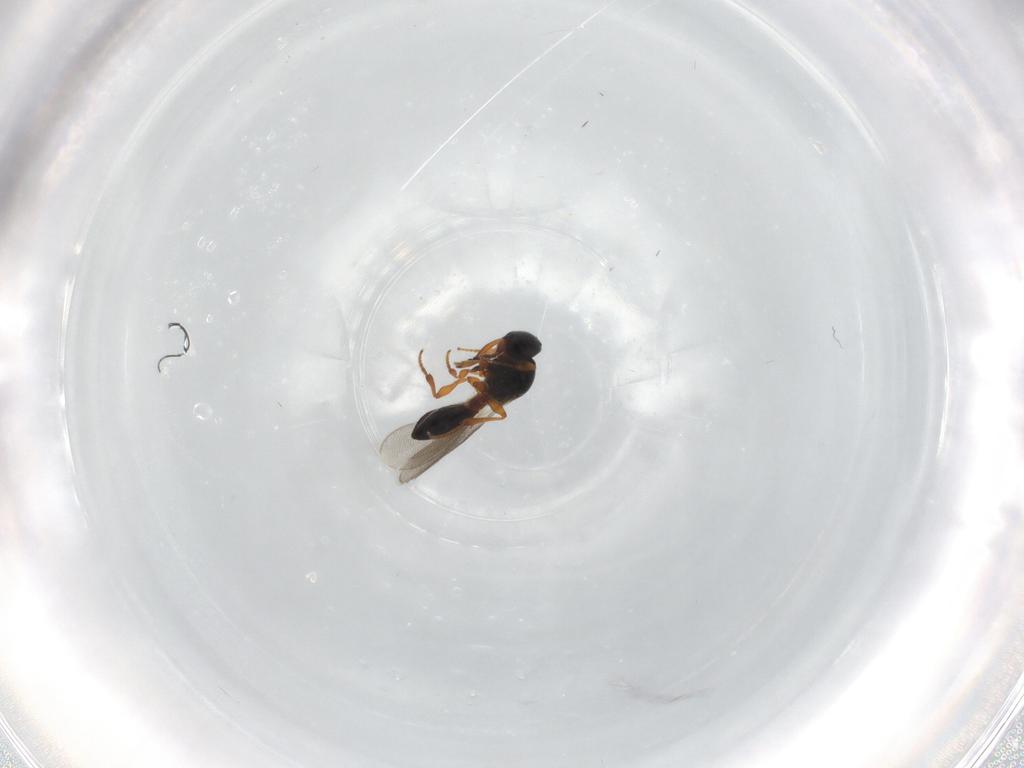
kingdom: Animalia
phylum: Arthropoda
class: Insecta
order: Hymenoptera
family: Platygastridae
